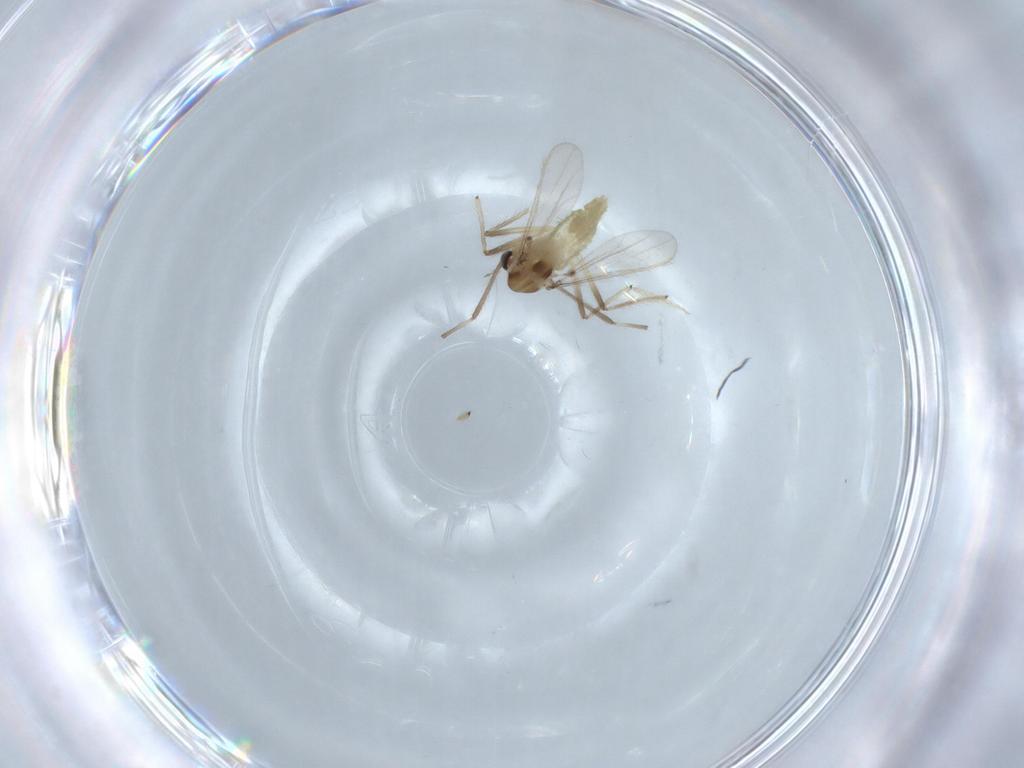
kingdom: Animalia
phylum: Arthropoda
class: Insecta
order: Diptera
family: Chironomidae
